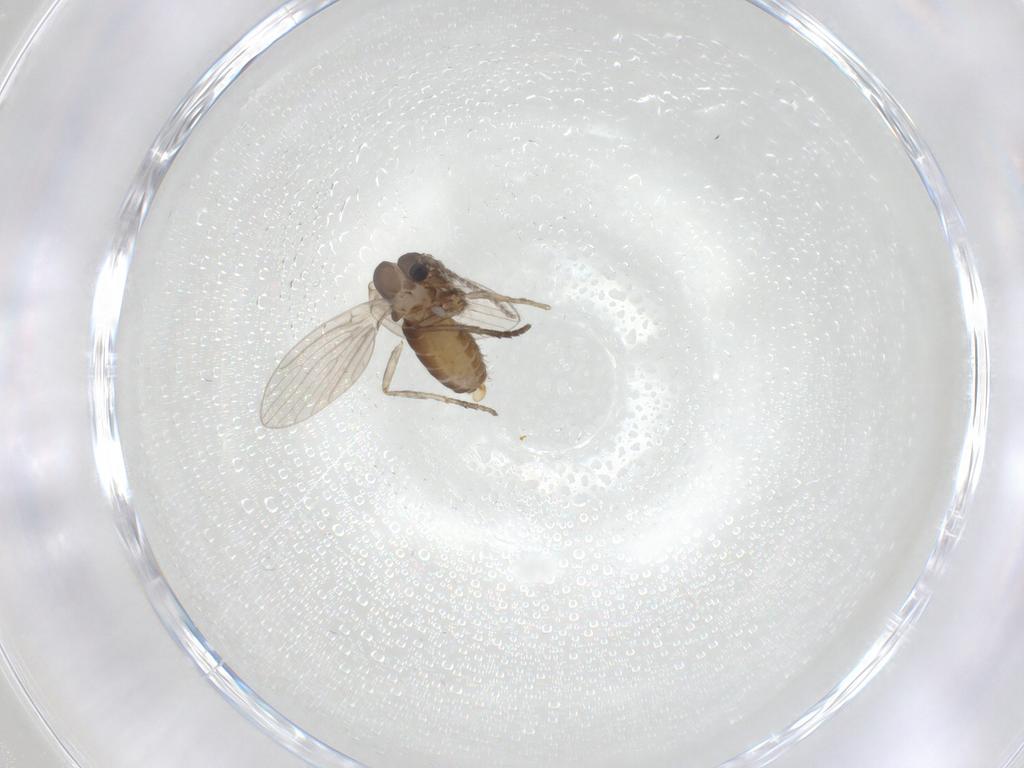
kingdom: Animalia
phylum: Arthropoda
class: Insecta
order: Diptera
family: Psychodidae
